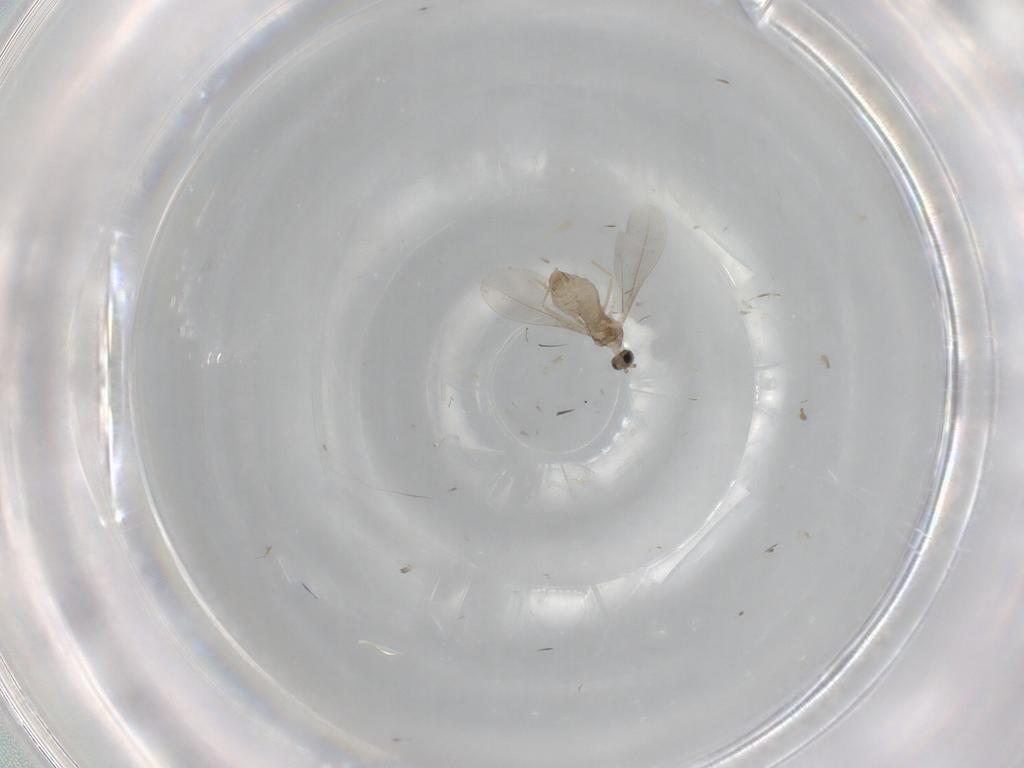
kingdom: Animalia
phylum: Arthropoda
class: Insecta
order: Diptera
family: Cecidomyiidae
